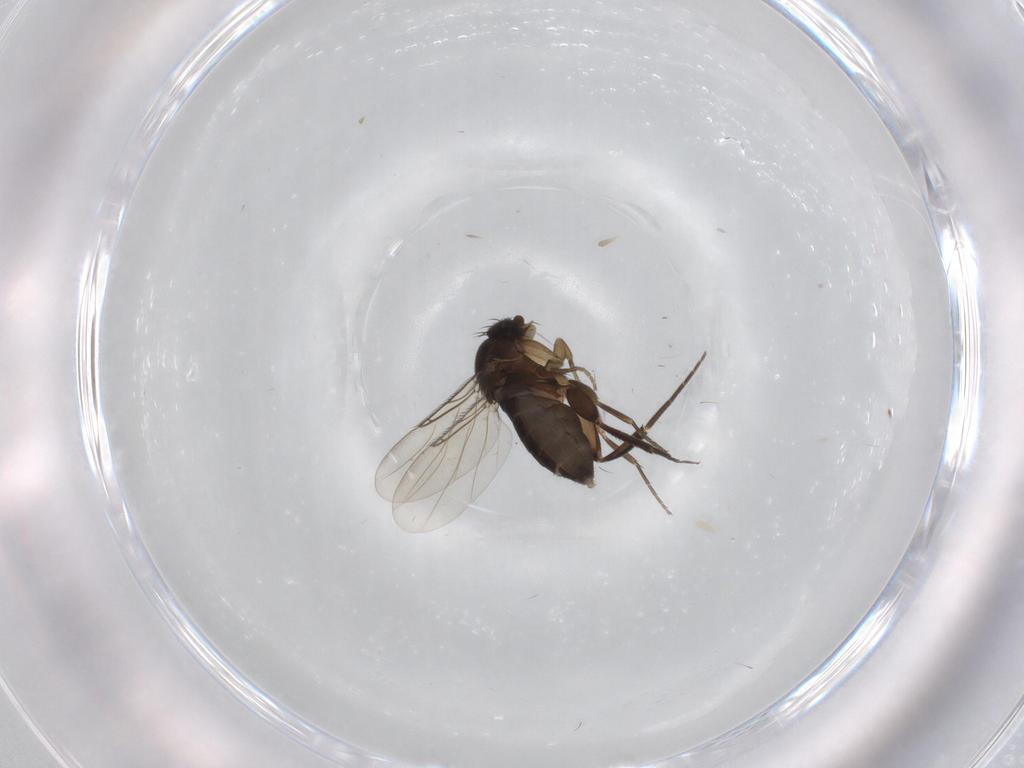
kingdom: Animalia
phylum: Arthropoda
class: Insecta
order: Diptera
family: Phoridae
